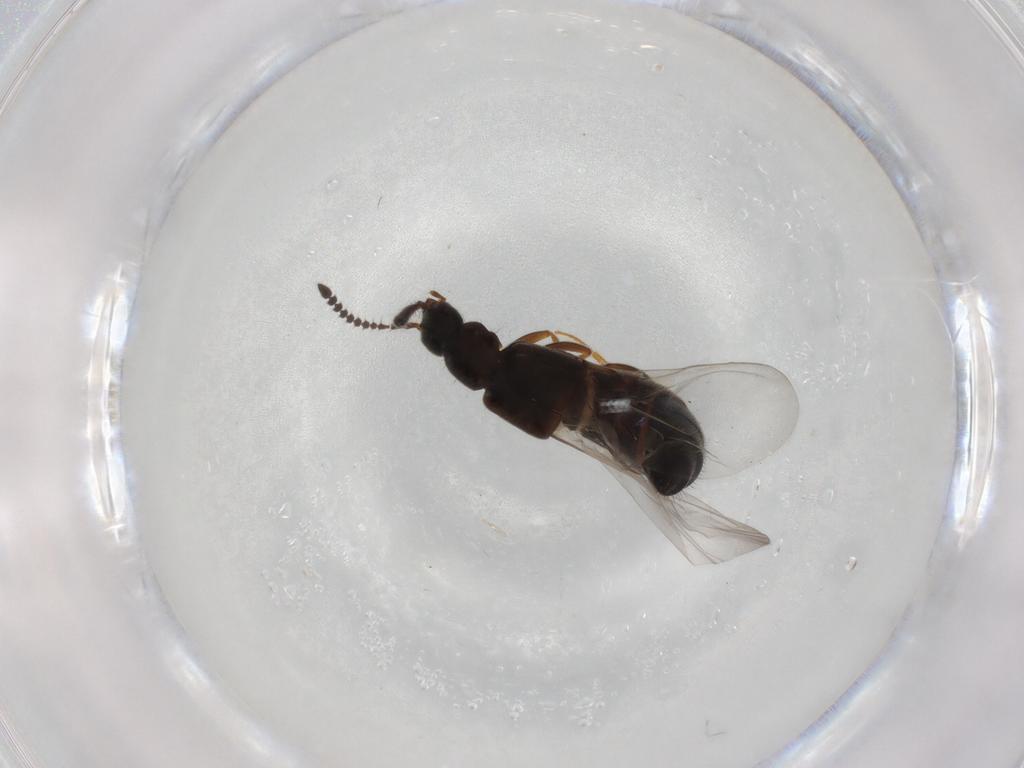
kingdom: Animalia
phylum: Arthropoda
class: Insecta
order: Coleoptera
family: Staphylinidae
